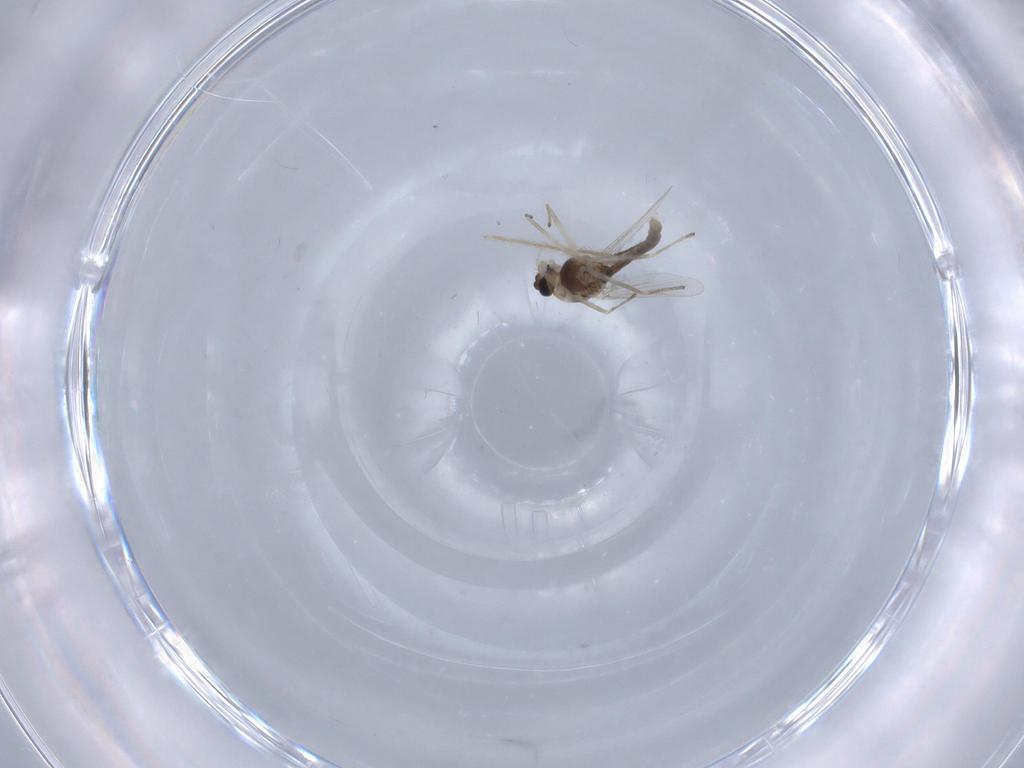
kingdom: Animalia
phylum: Arthropoda
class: Insecta
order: Diptera
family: Chironomidae
